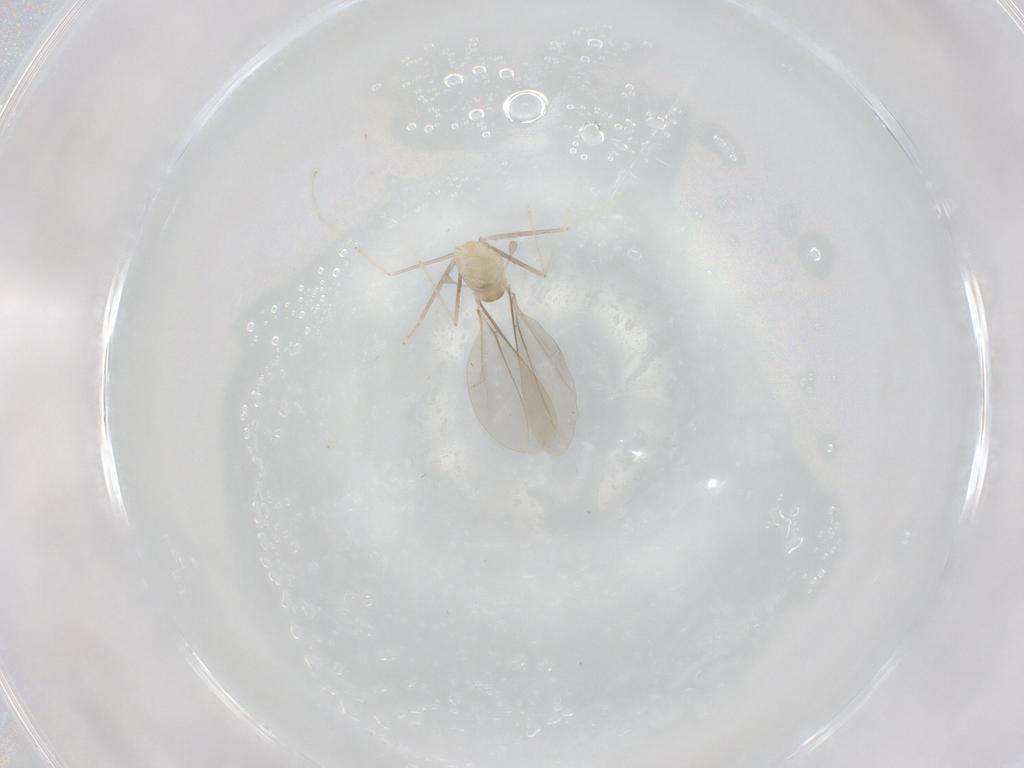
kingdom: Animalia
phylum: Arthropoda
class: Insecta
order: Diptera
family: Cecidomyiidae
